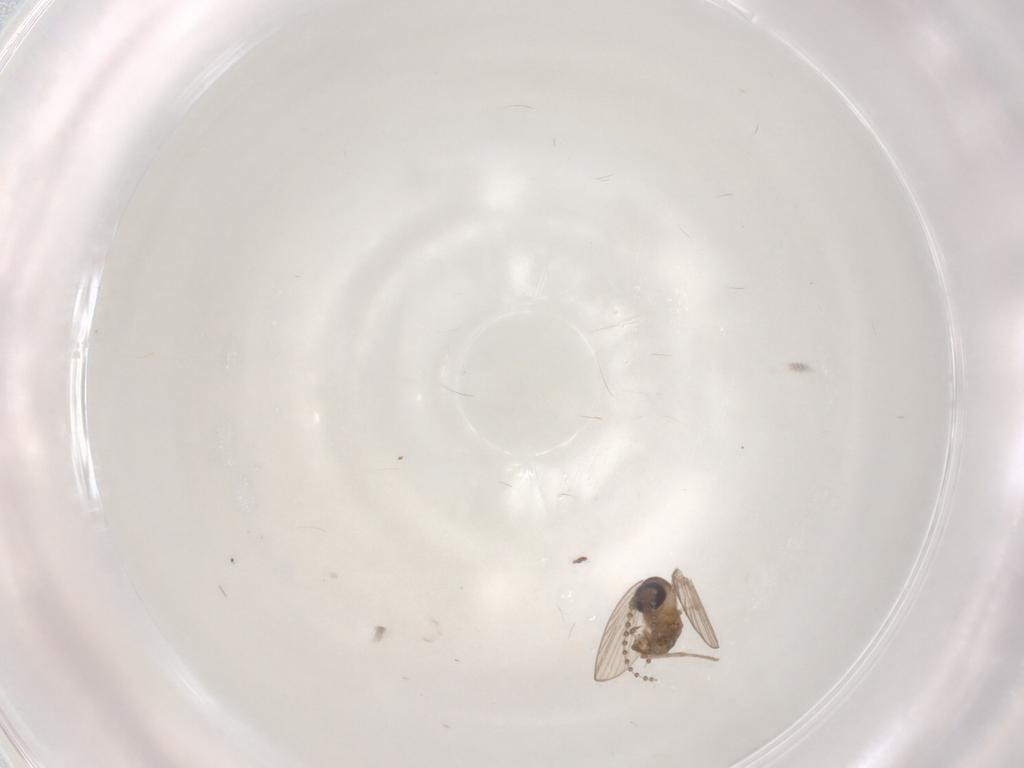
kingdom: Animalia
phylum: Arthropoda
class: Insecta
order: Diptera
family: Psychodidae
